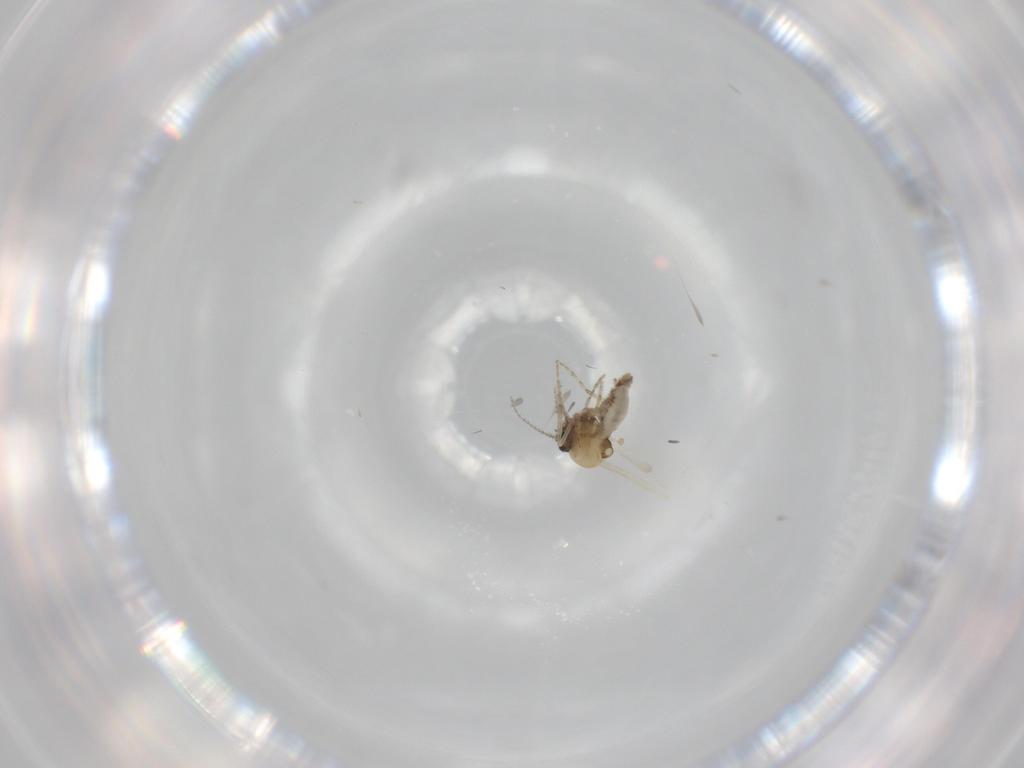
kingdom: Animalia
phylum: Arthropoda
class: Insecta
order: Diptera
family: Ceratopogonidae
